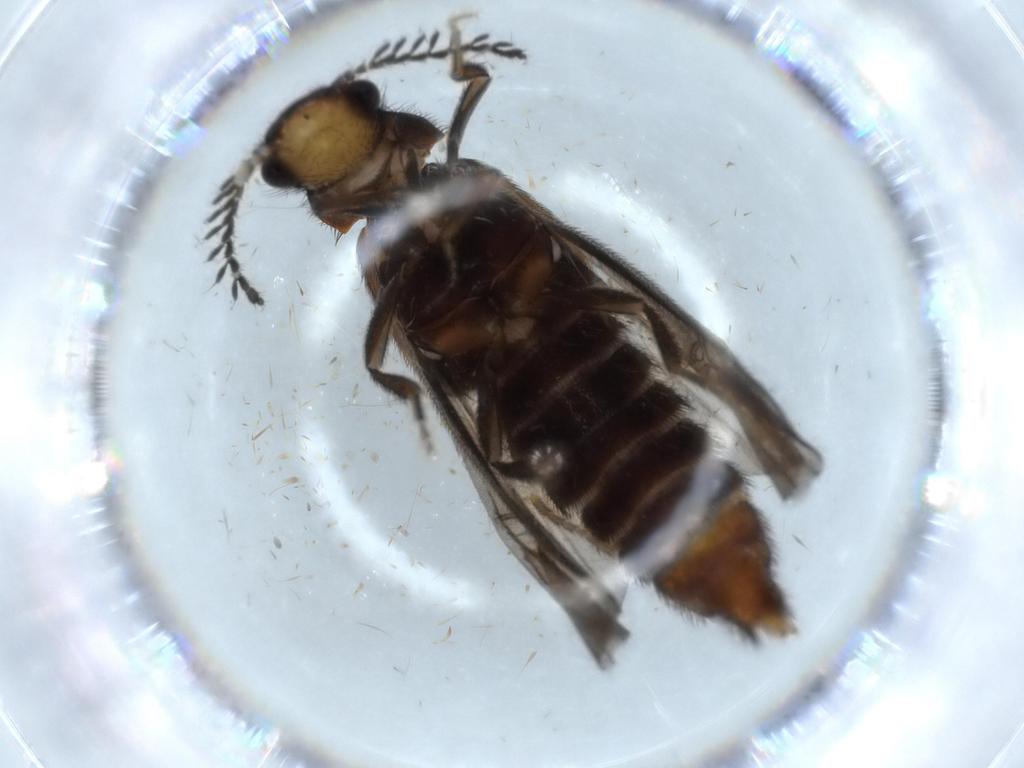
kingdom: Animalia
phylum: Arthropoda
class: Insecta
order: Coleoptera
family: Phengodidae
